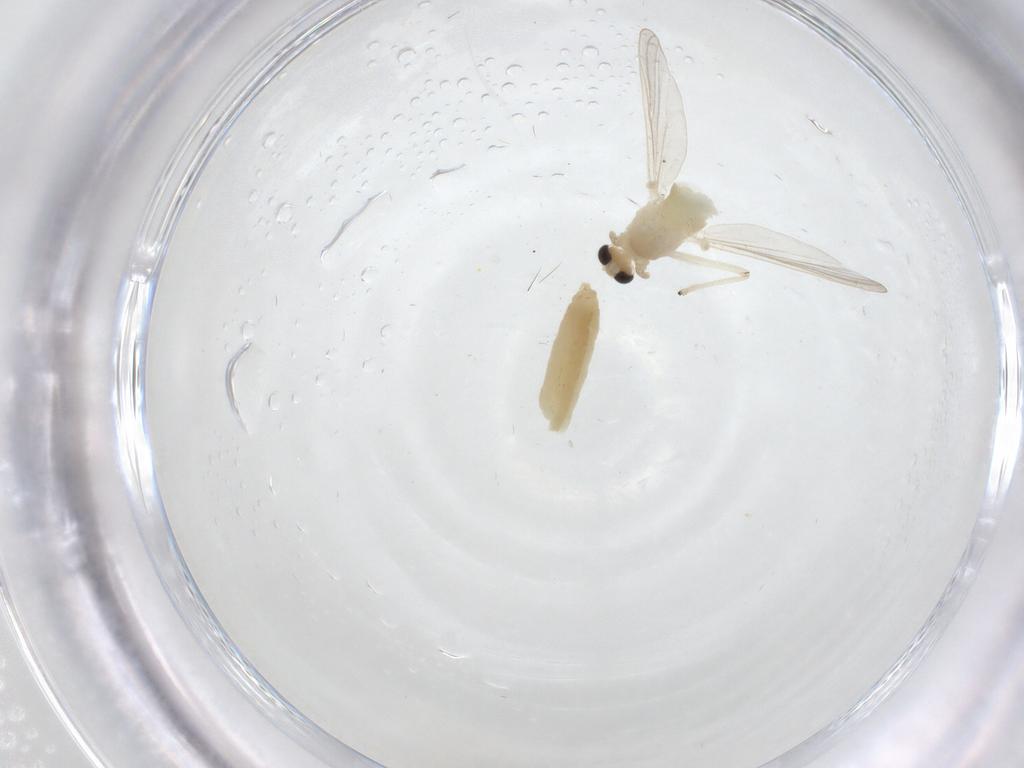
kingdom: Animalia
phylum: Arthropoda
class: Insecta
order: Diptera
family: Chironomidae
